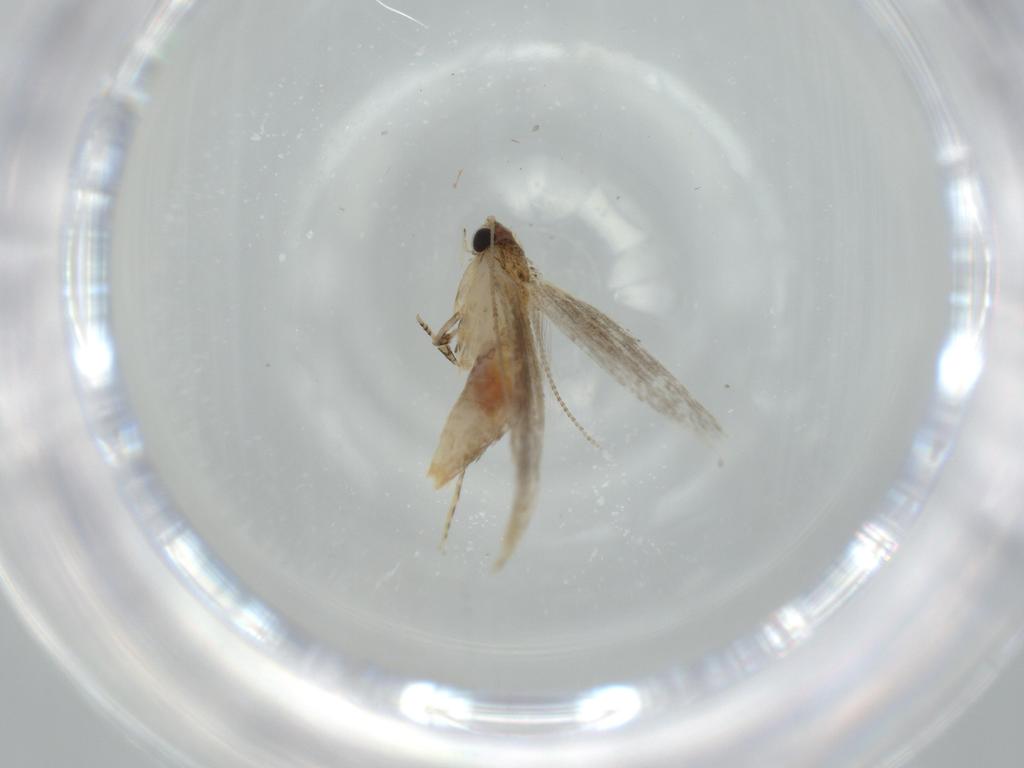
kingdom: Animalia
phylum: Arthropoda
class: Insecta
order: Lepidoptera
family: Tineidae
